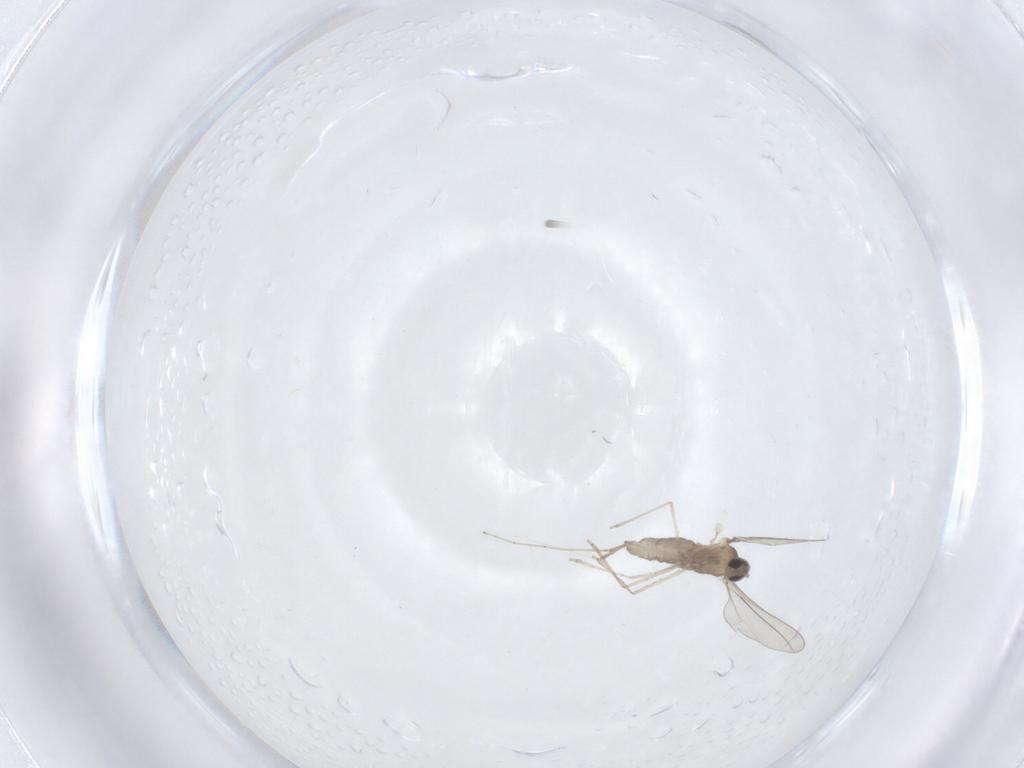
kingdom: Animalia
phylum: Arthropoda
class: Insecta
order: Diptera
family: Cecidomyiidae
